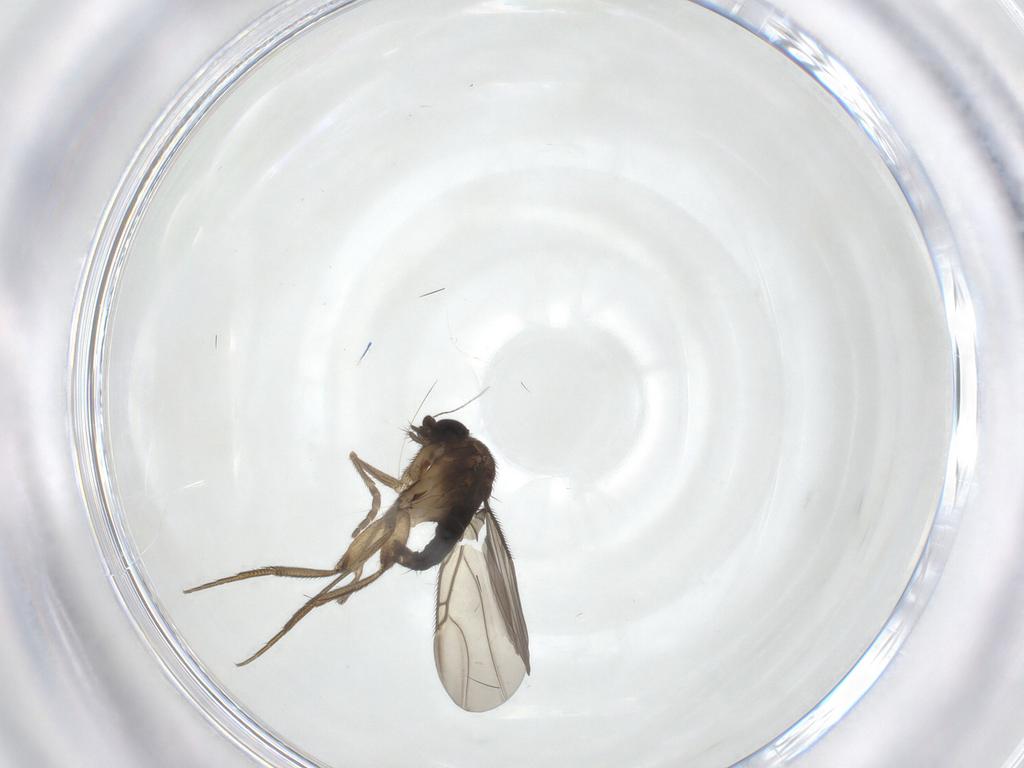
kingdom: Animalia
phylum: Arthropoda
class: Insecta
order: Diptera
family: Phoridae
